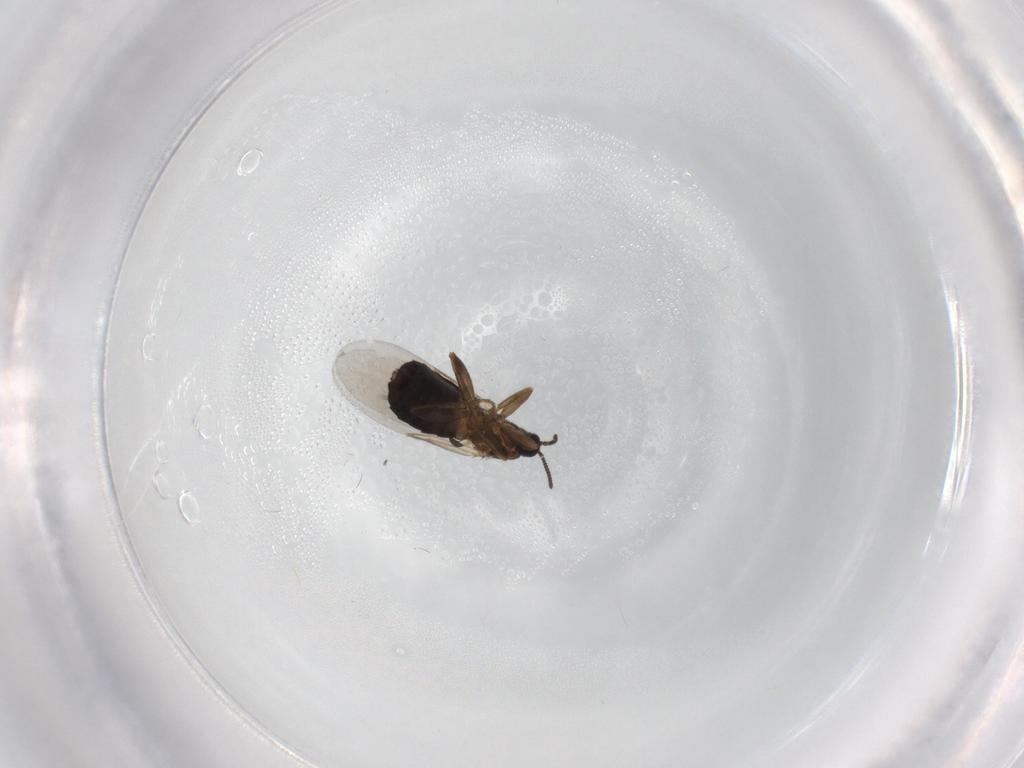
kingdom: Animalia
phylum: Arthropoda
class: Insecta
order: Diptera
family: Scatopsidae
